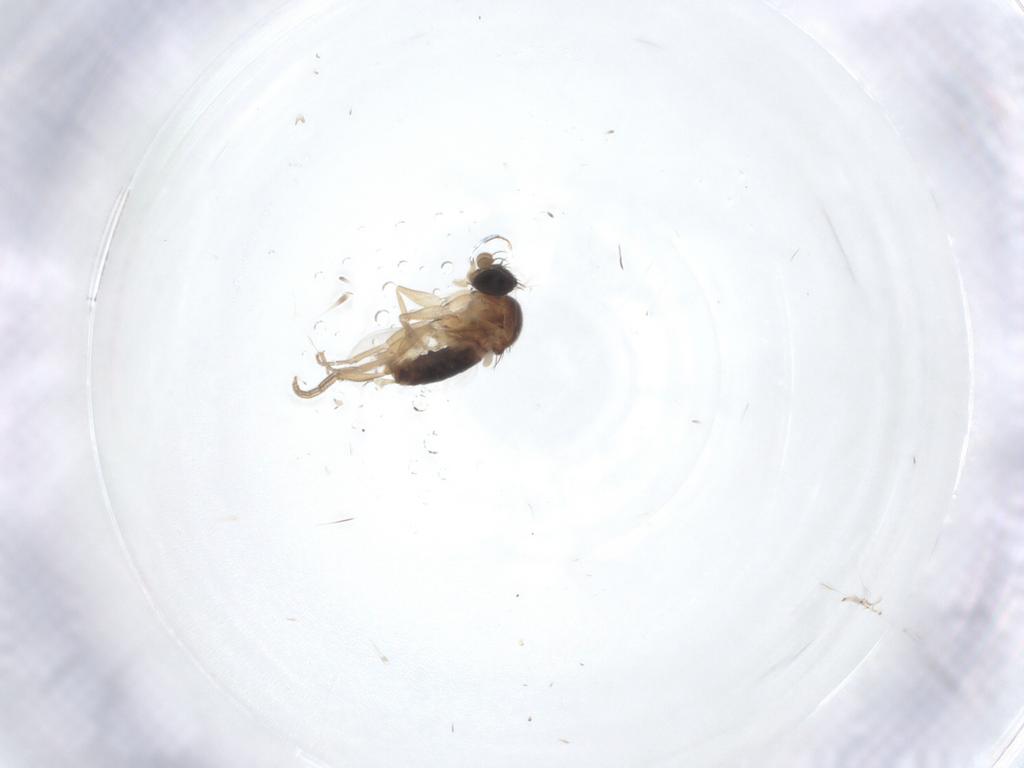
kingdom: Animalia
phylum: Arthropoda
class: Insecta
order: Diptera
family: Cecidomyiidae
